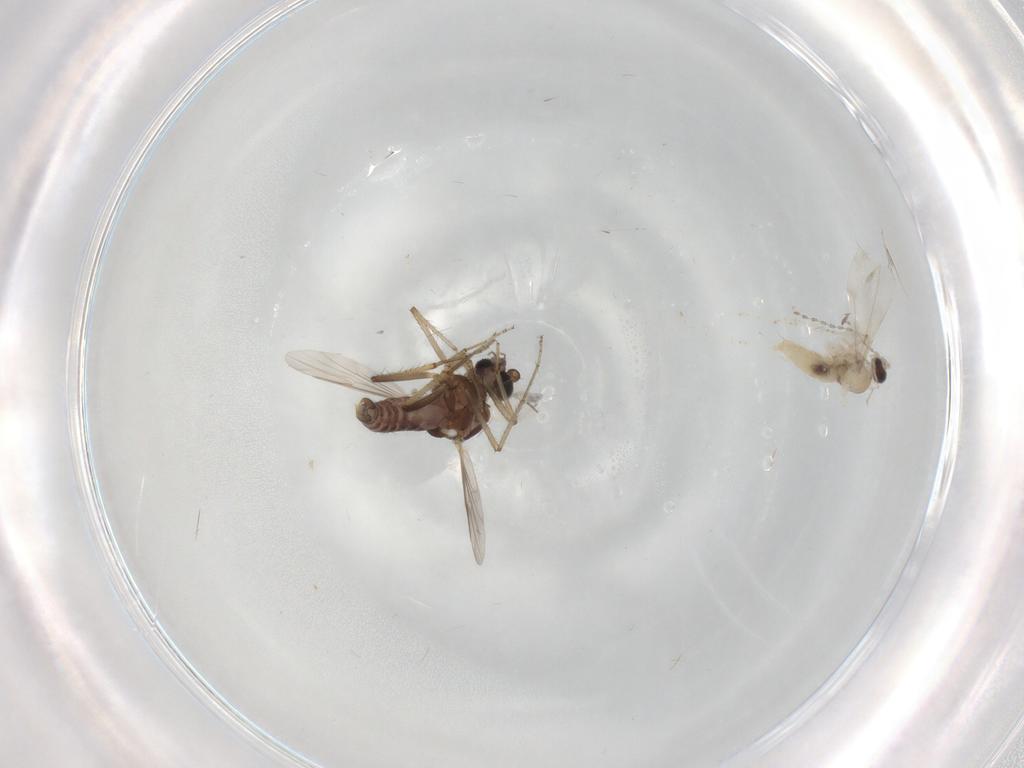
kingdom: Animalia
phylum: Arthropoda
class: Insecta
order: Diptera
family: Ceratopogonidae
